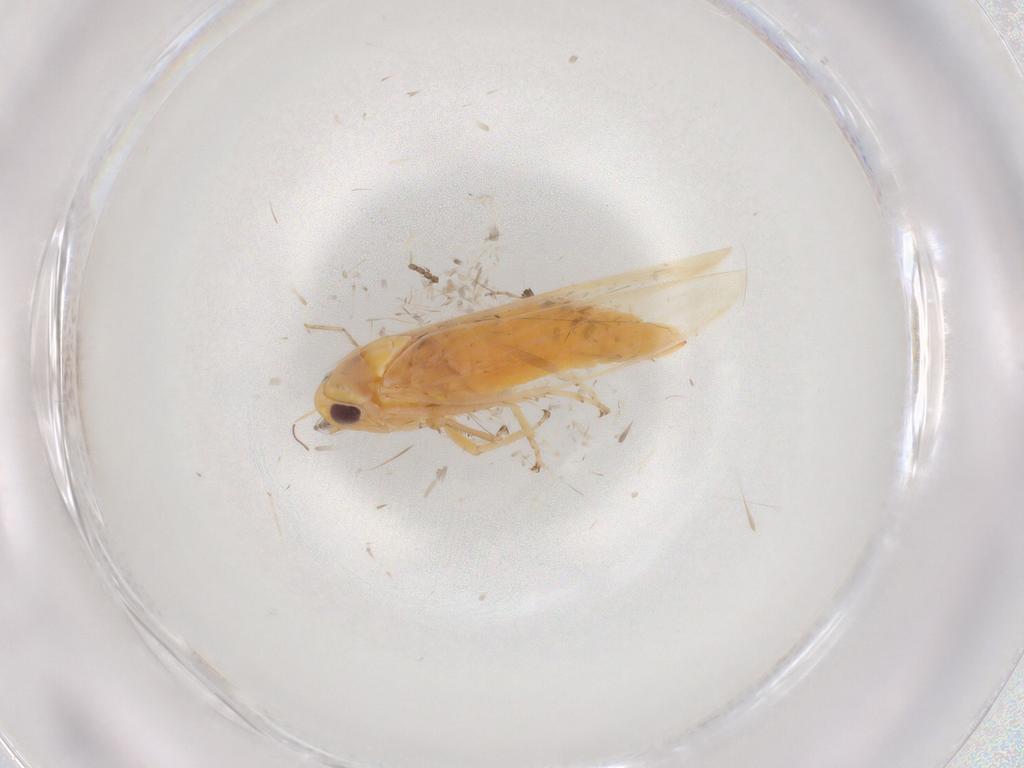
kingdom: Animalia
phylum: Arthropoda
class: Insecta
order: Hemiptera
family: Cicadellidae
